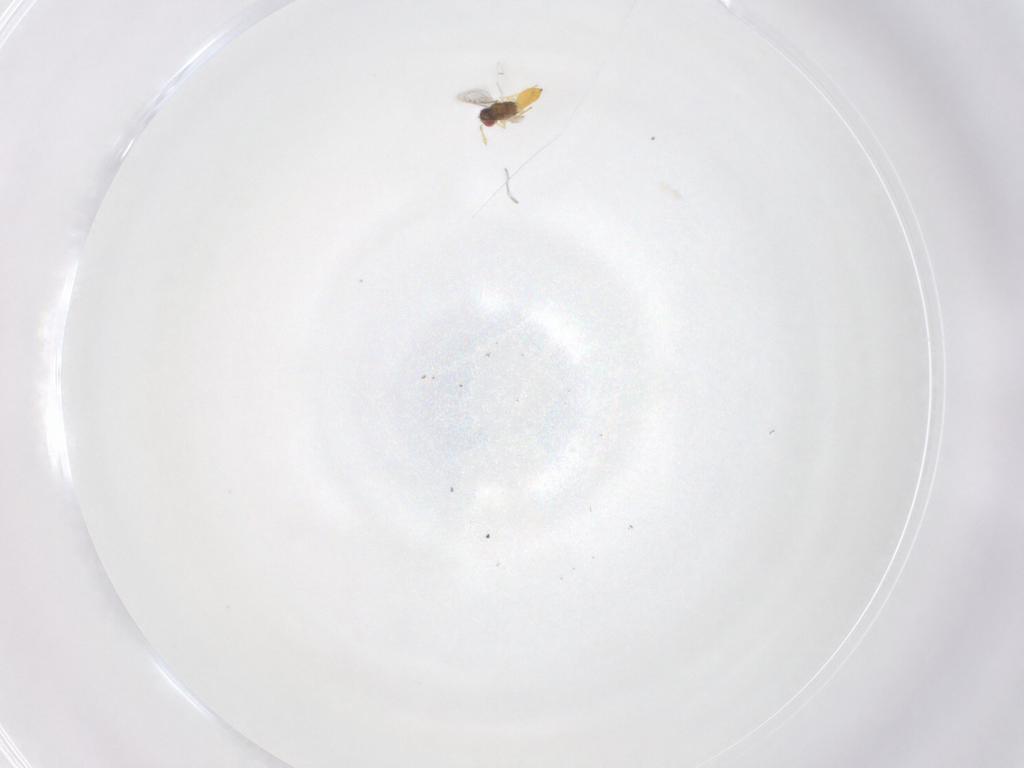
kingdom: Animalia
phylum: Arthropoda
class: Insecta
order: Hymenoptera
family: Eulophidae
